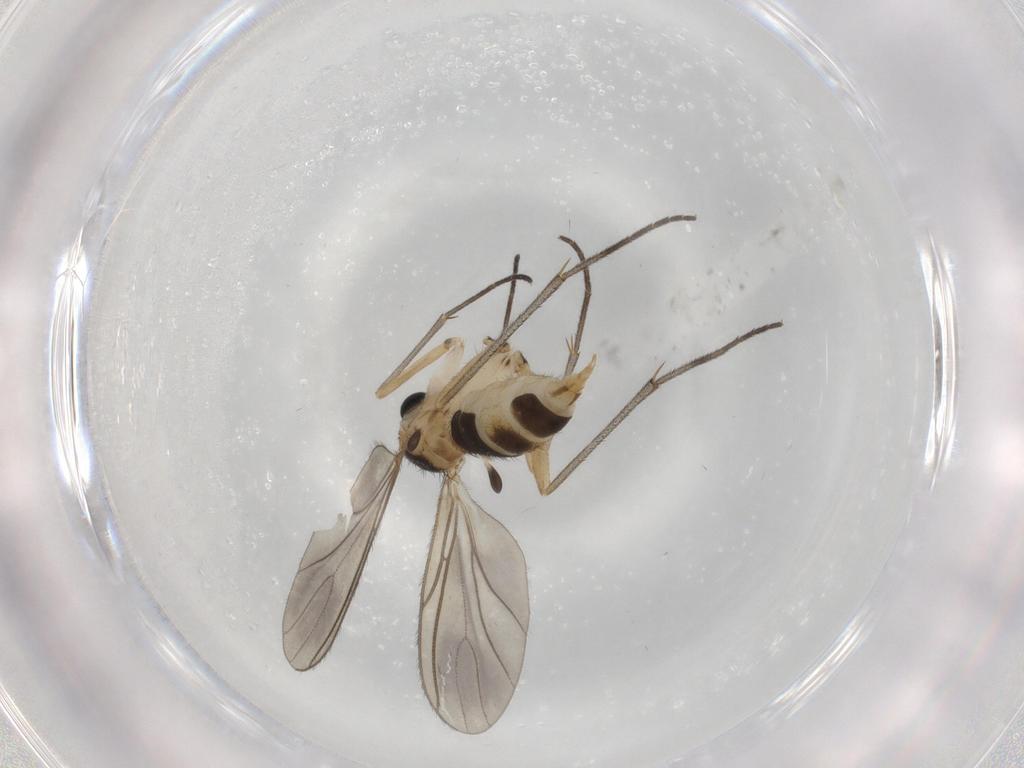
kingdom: Animalia
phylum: Arthropoda
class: Insecta
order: Diptera
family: Sciaridae
